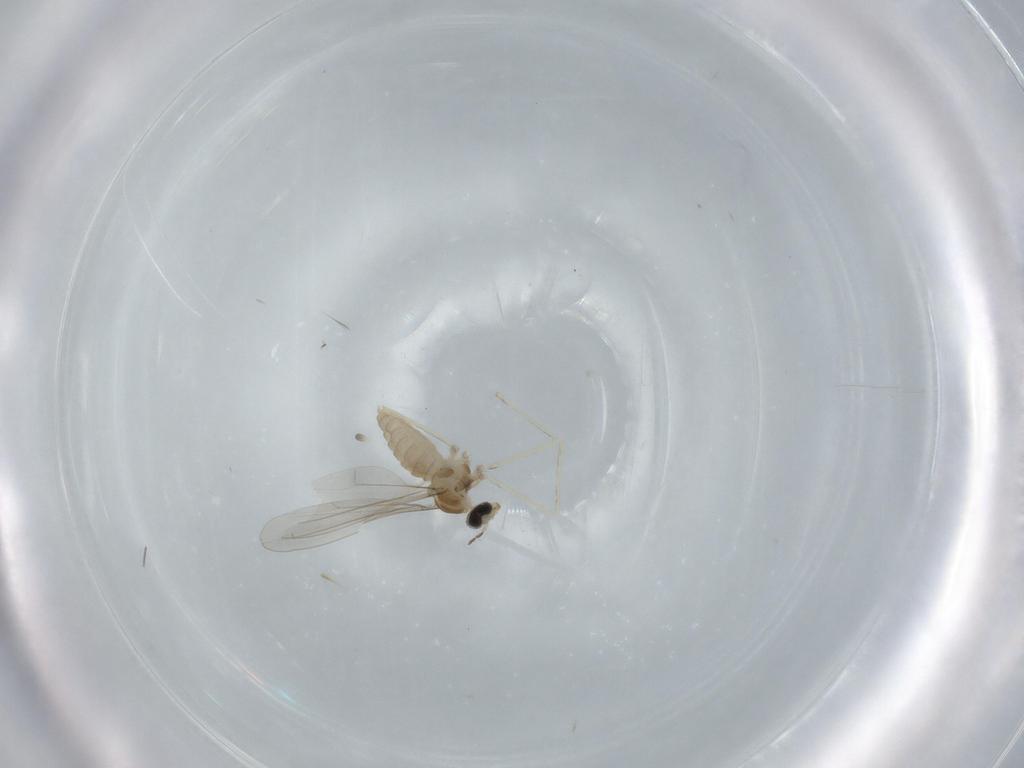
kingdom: Animalia
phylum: Arthropoda
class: Insecta
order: Diptera
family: Cecidomyiidae
